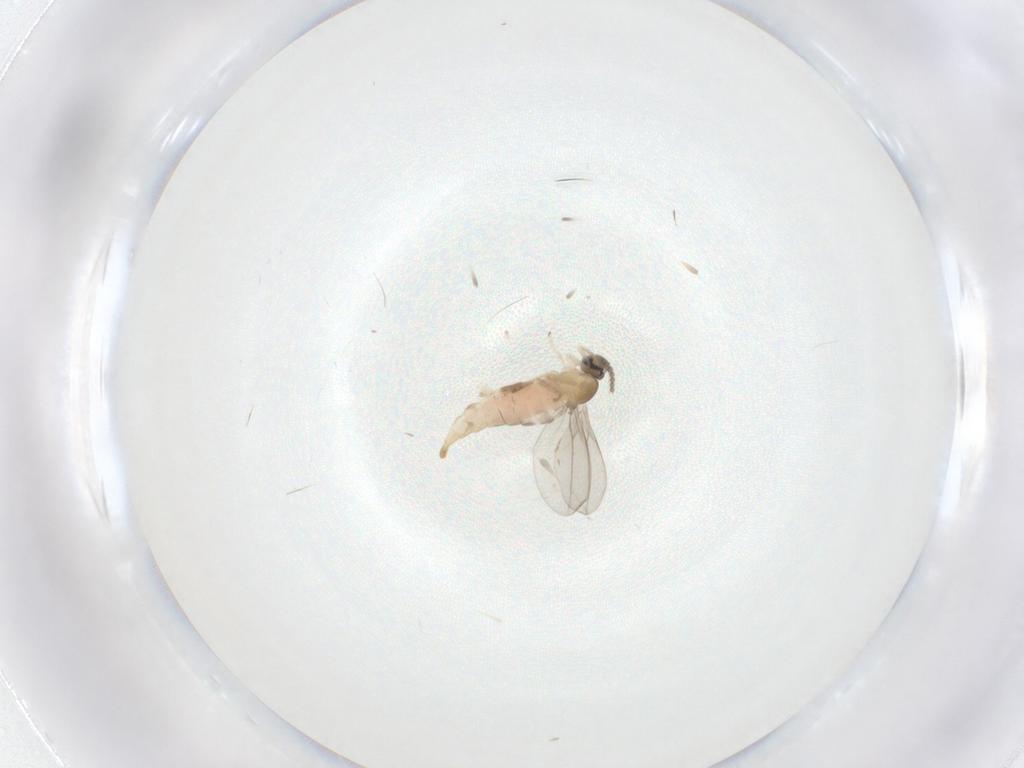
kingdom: Animalia
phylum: Arthropoda
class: Insecta
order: Diptera
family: Cecidomyiidae
